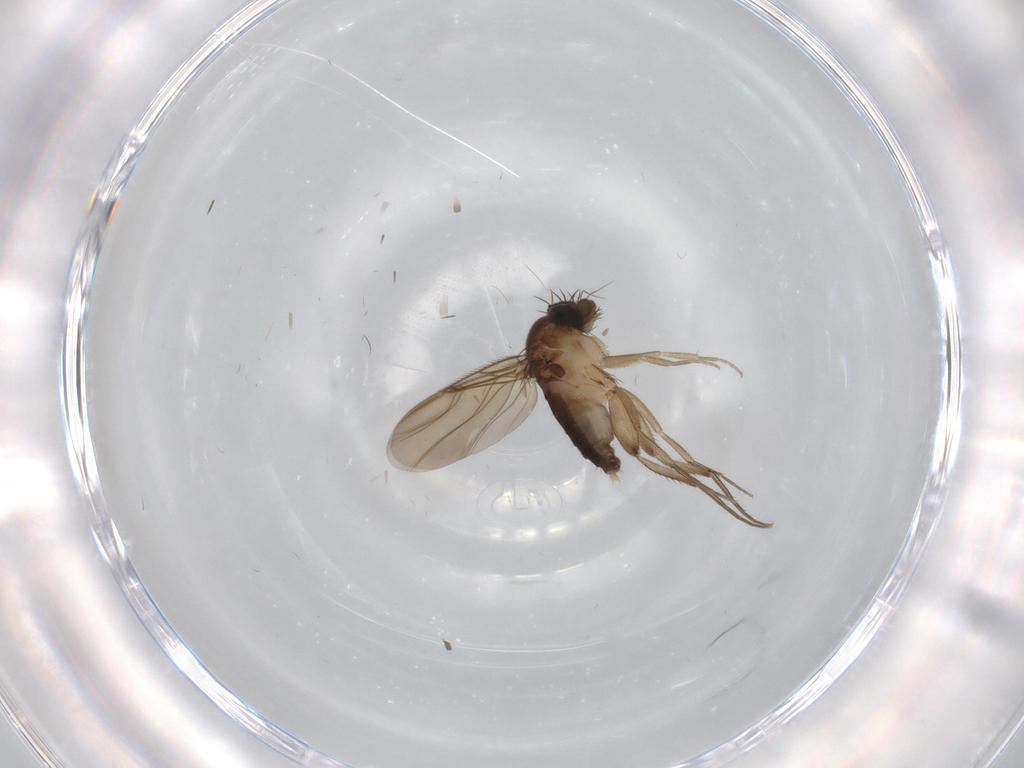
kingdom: Animalia
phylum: Arthropoda
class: Insecta
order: Diptera
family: Phoridae
